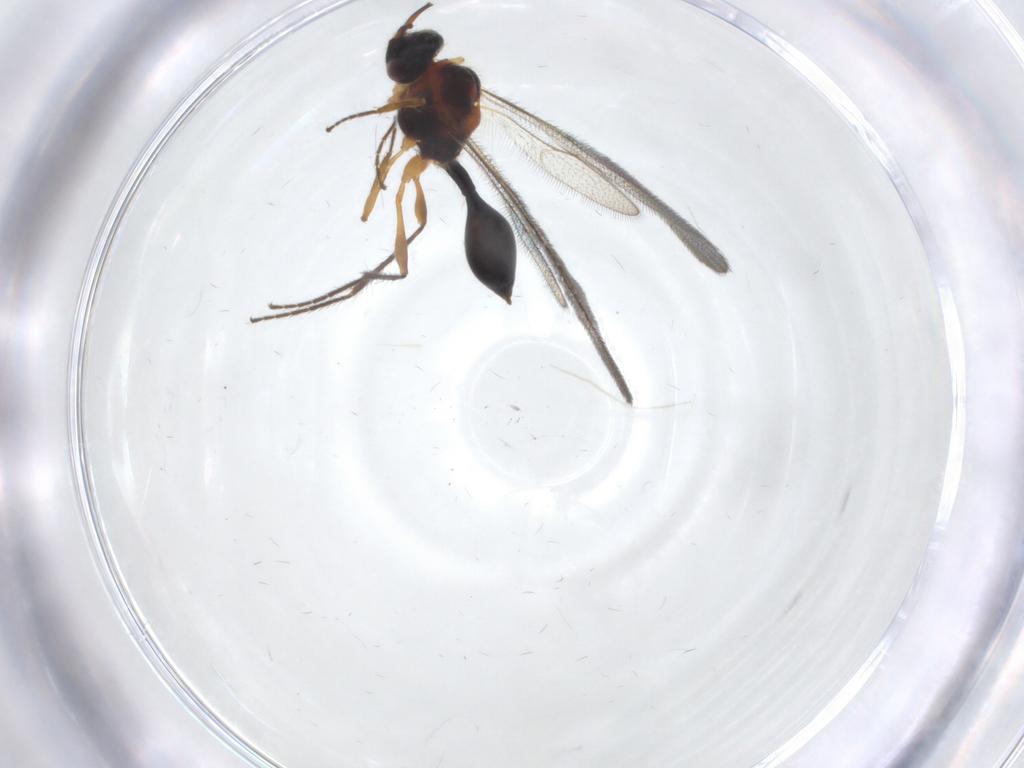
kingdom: Animalia
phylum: Arthropoda
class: Insecta
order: Hymenoptera
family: Diapriidae
